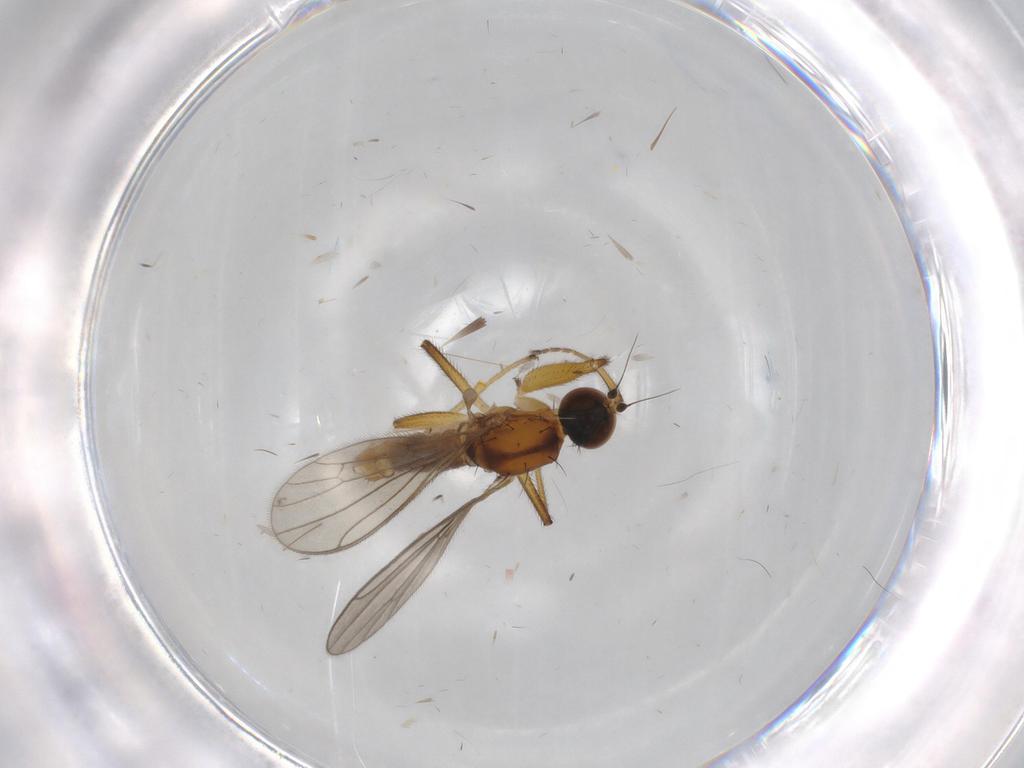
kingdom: Animalia
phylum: Arthropoda
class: Insecta
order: Diptera
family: Empididae
